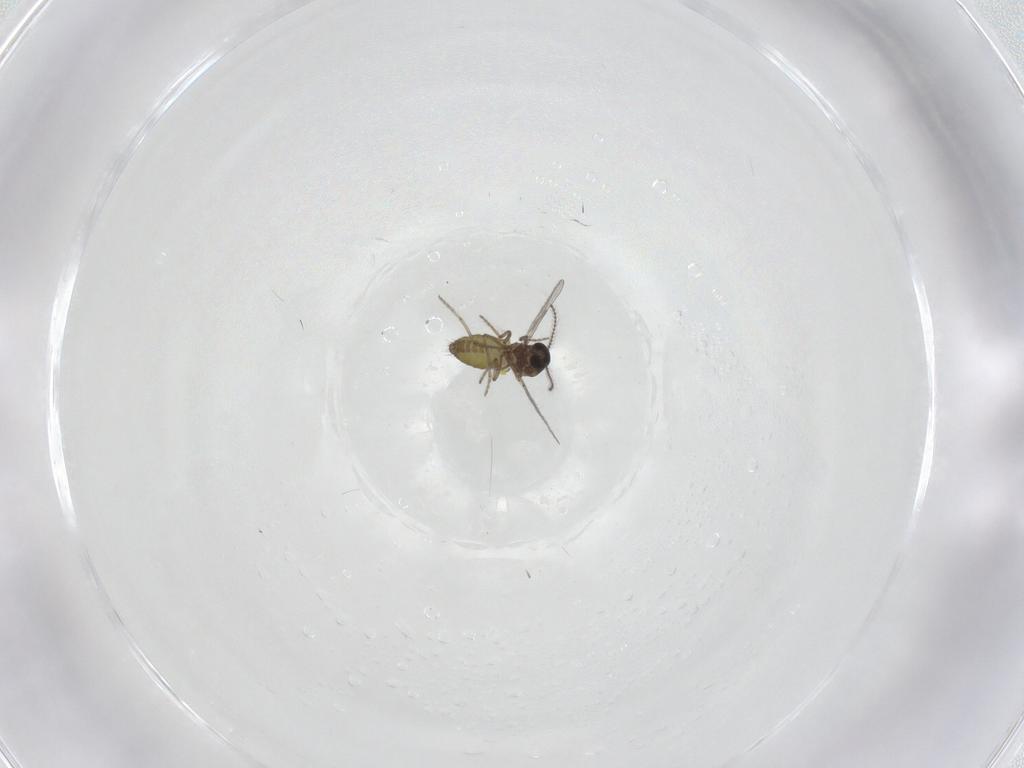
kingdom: Animalia
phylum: Arthropoda
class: Insecta
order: Diptera
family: Ceratopogonidae
